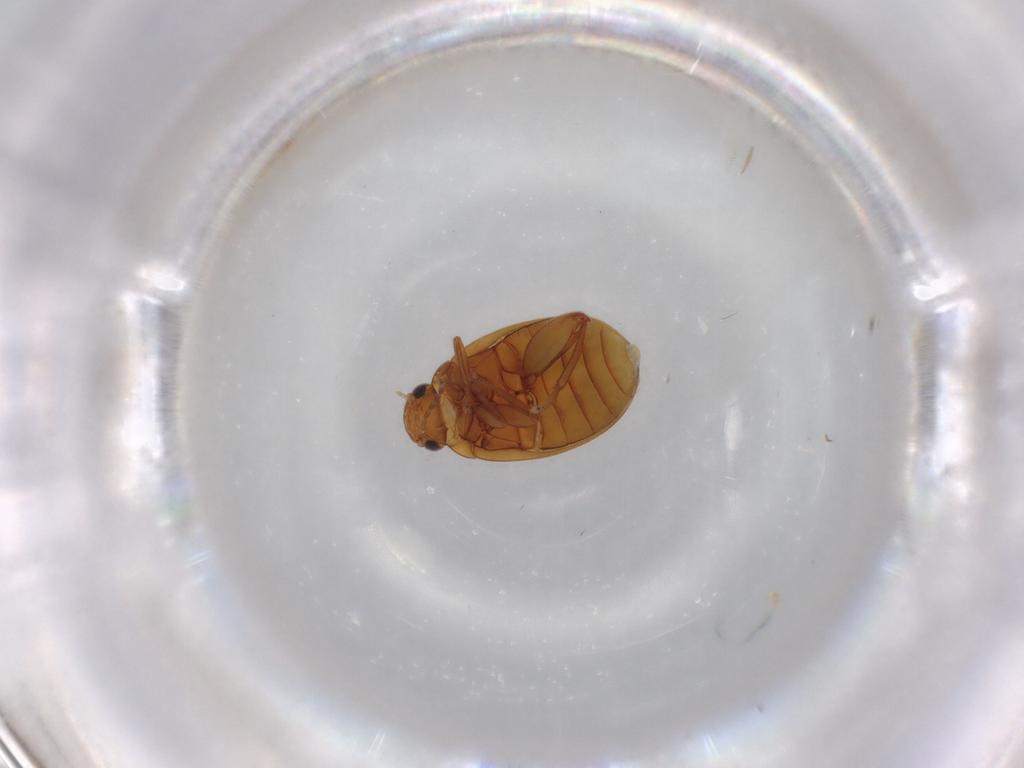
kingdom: Animalia
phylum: Arthropoda
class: Insecta
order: Coleoptera
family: Scirtidae
